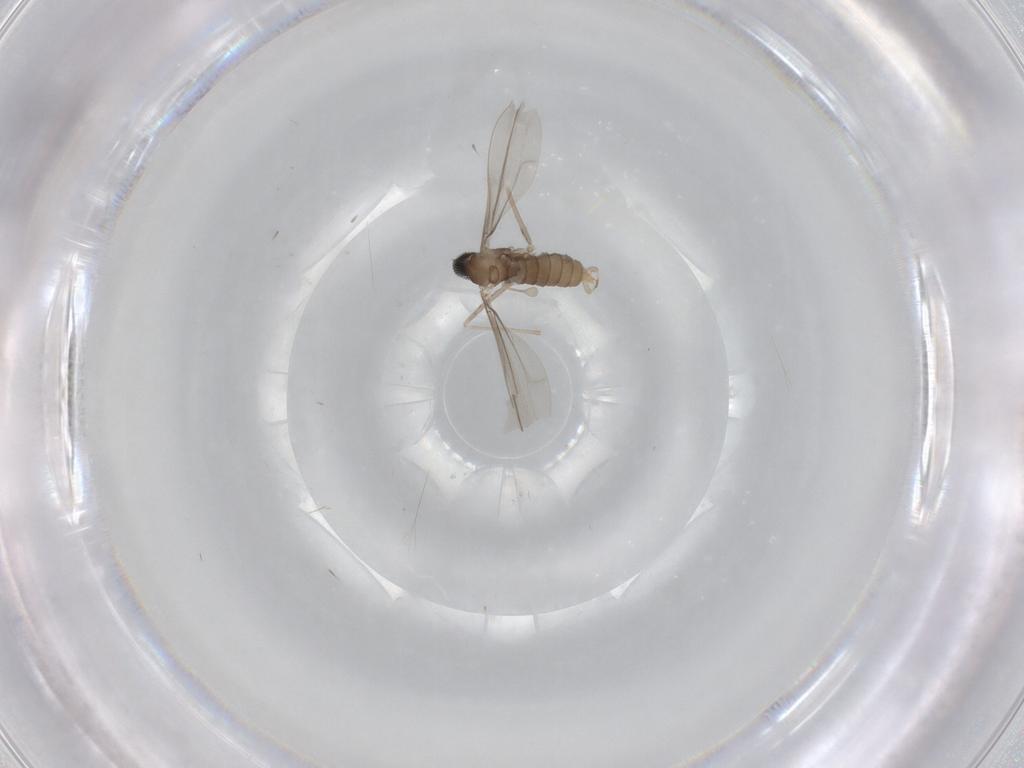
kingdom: Animalia
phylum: Arthropoda
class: Insecta
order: Diptera
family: Cecidomyiidae
